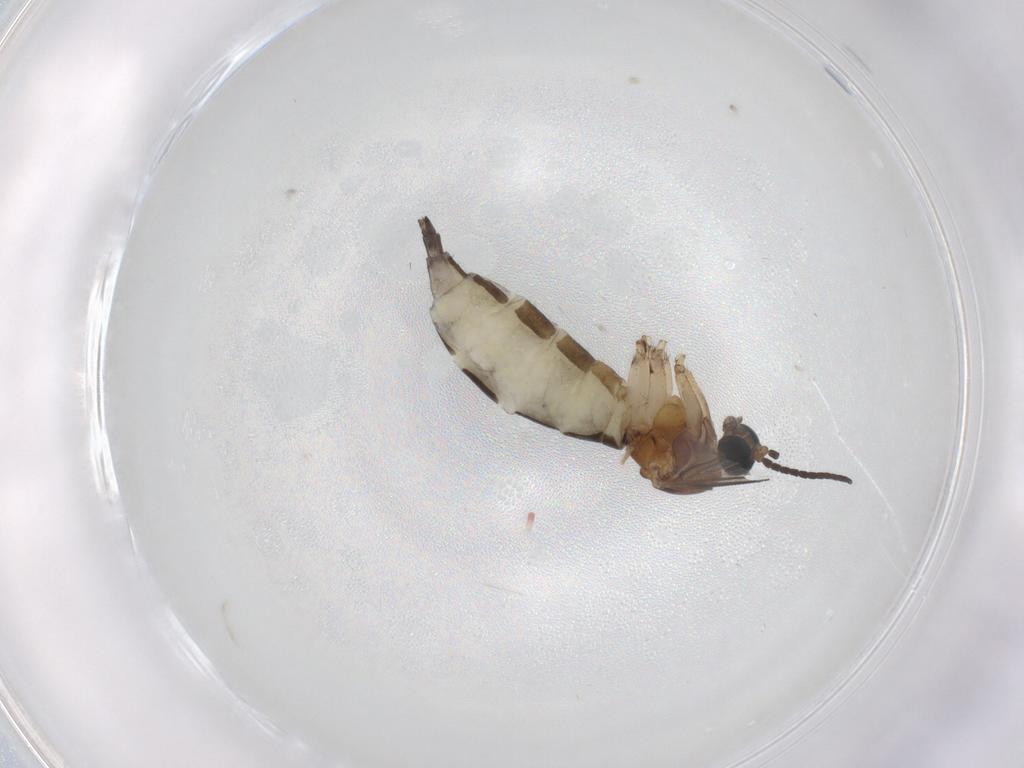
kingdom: Animalia
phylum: Arthropoda
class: Insecta
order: Diptera
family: Sciaridae
